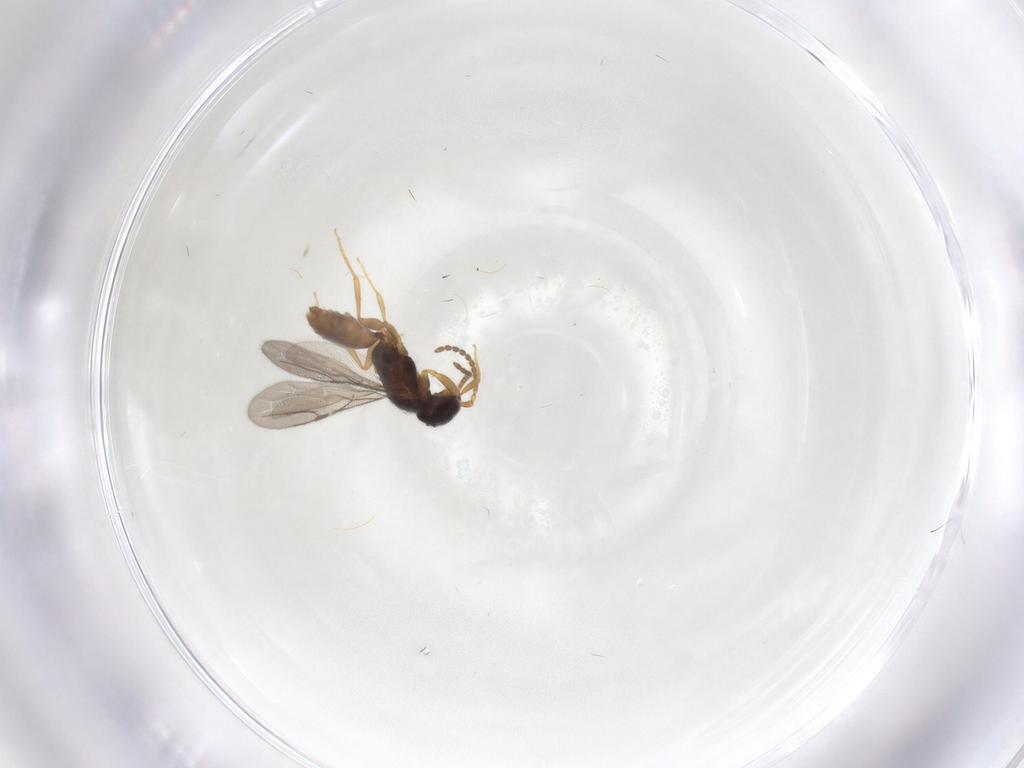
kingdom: Animalia
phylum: Arthropoda
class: Insecta
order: Hymenoptera
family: Bethylidae
